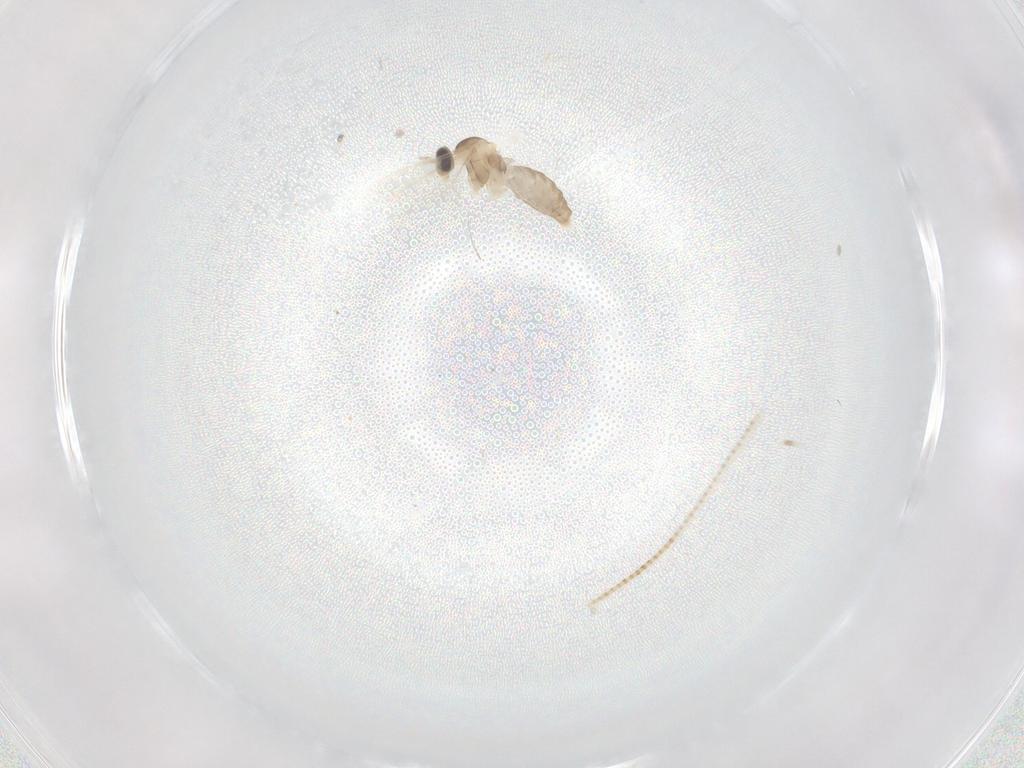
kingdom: Animalia
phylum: Arthropoda
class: Insecta
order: Diptera
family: Cecidomyiidae
